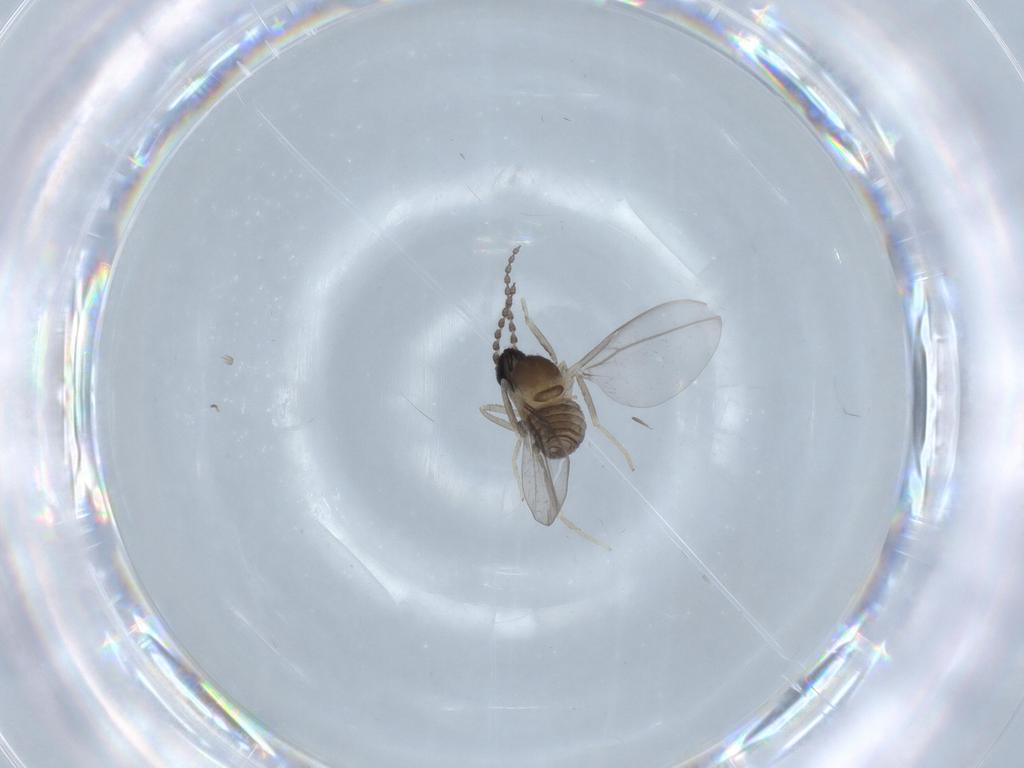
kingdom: Animalia
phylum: Arthropoda
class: Insecta
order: Diptera
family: Cecidomyiidae
